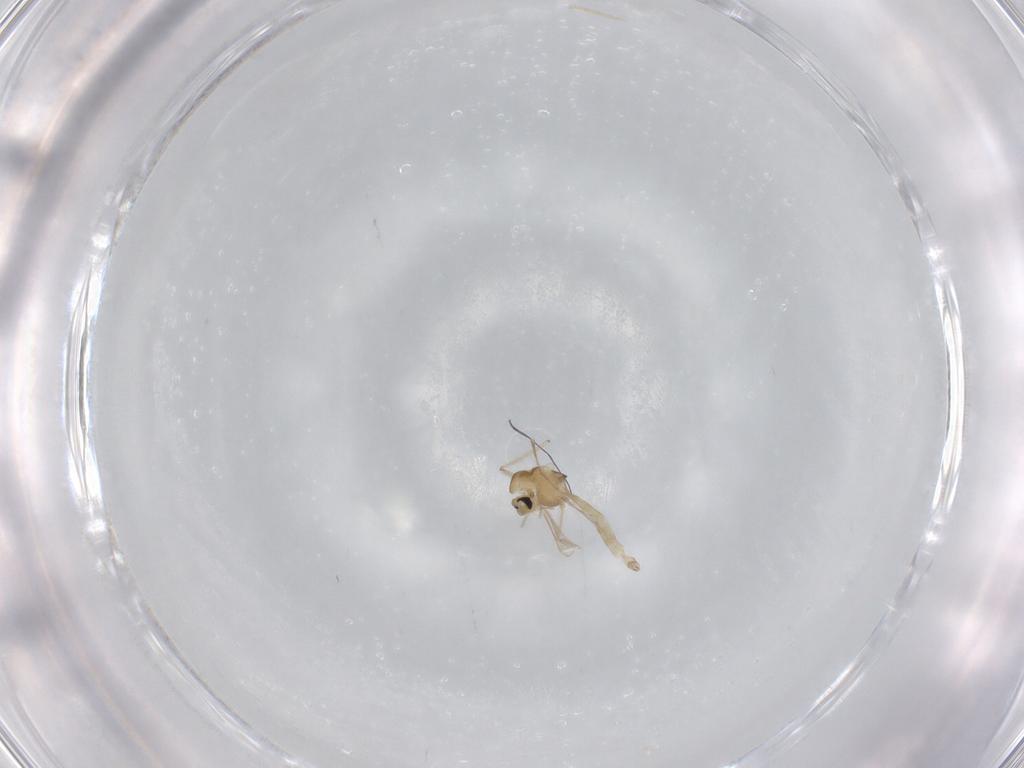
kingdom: Animalia
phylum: Arthropoda
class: Insecta
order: Diptera
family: Chironomidae
